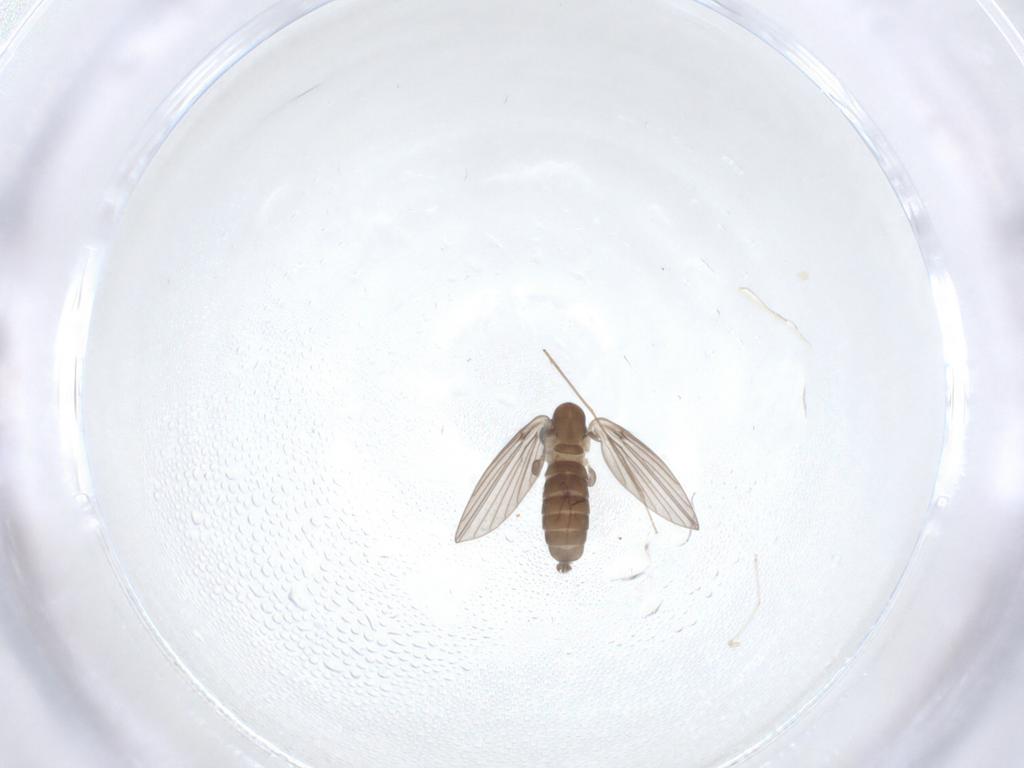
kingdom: Animalia
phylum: Arthropoda
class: Insecta
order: Diptera
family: Psychodidae
